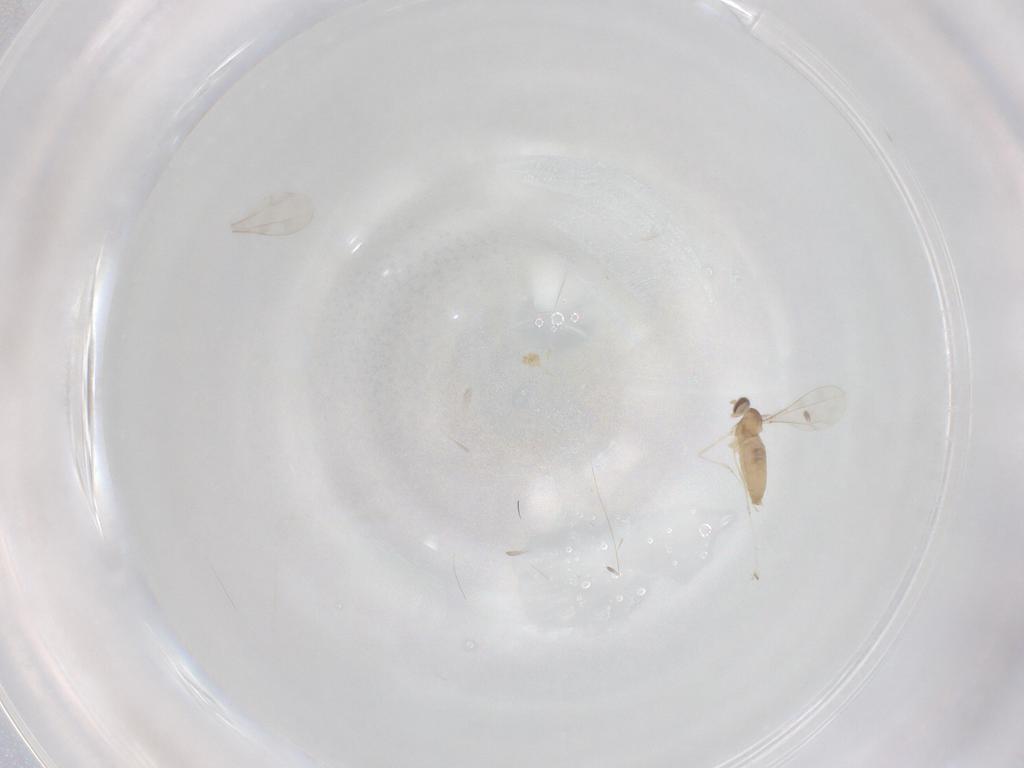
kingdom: Animalia
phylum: Arthropoda
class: Insecta
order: Diptera
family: Cecidomyiidae
